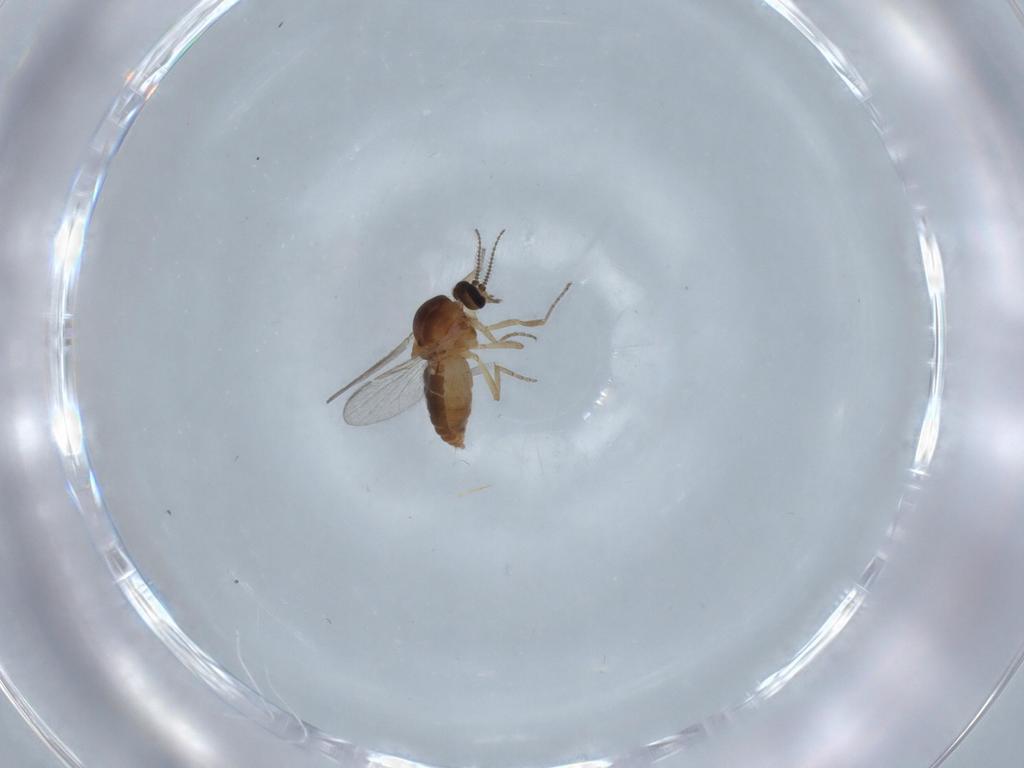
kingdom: Animalia
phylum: Arthropoda
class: Insecta
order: Diptera
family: Ceratopogonidae
